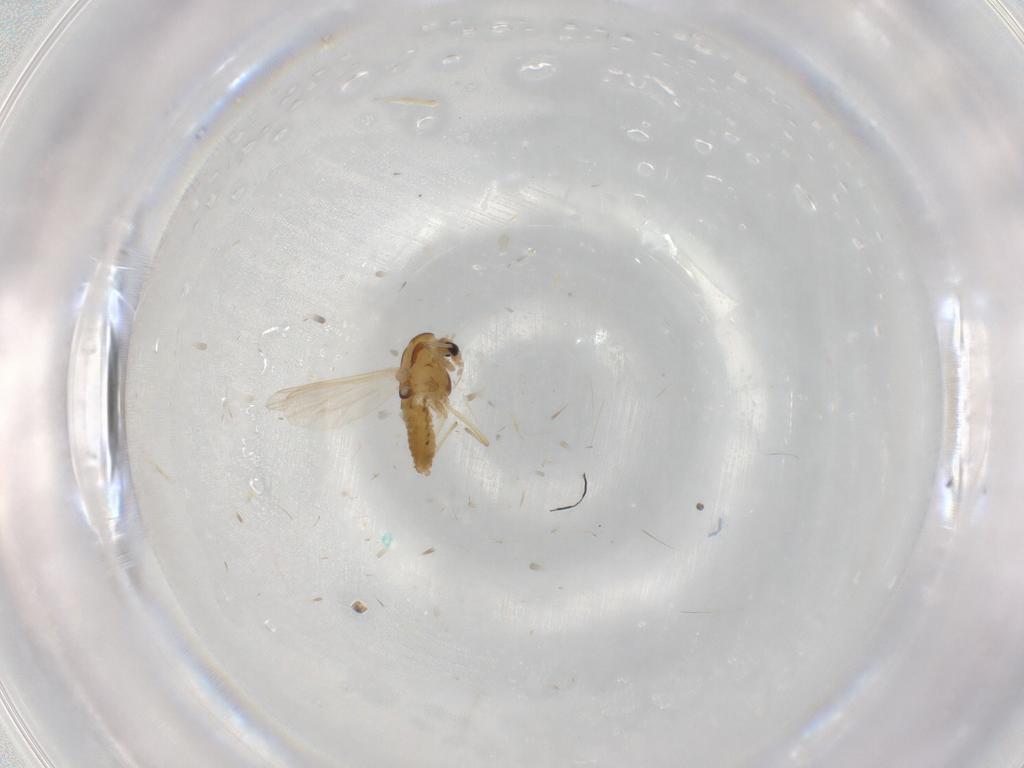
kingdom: Animalia
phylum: Arthropoda
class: Insecta
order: Diptera
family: Chironomidae
